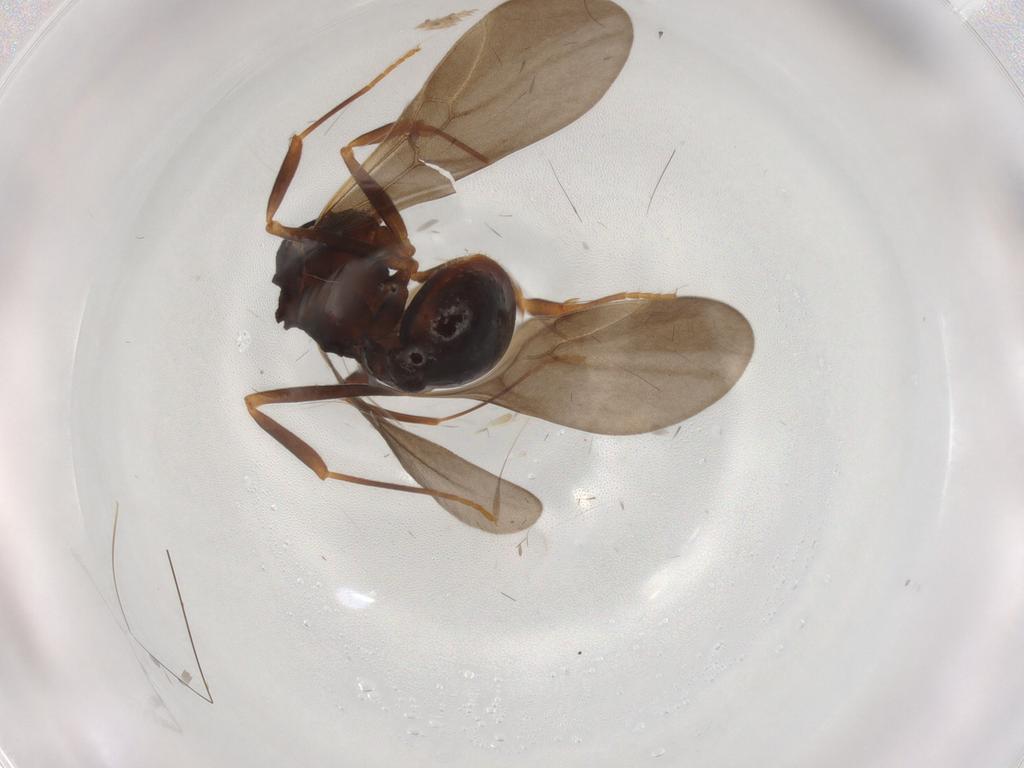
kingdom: Animalia
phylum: Arthropoda
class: Insecta
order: Hymenoptera
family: Formicidae
